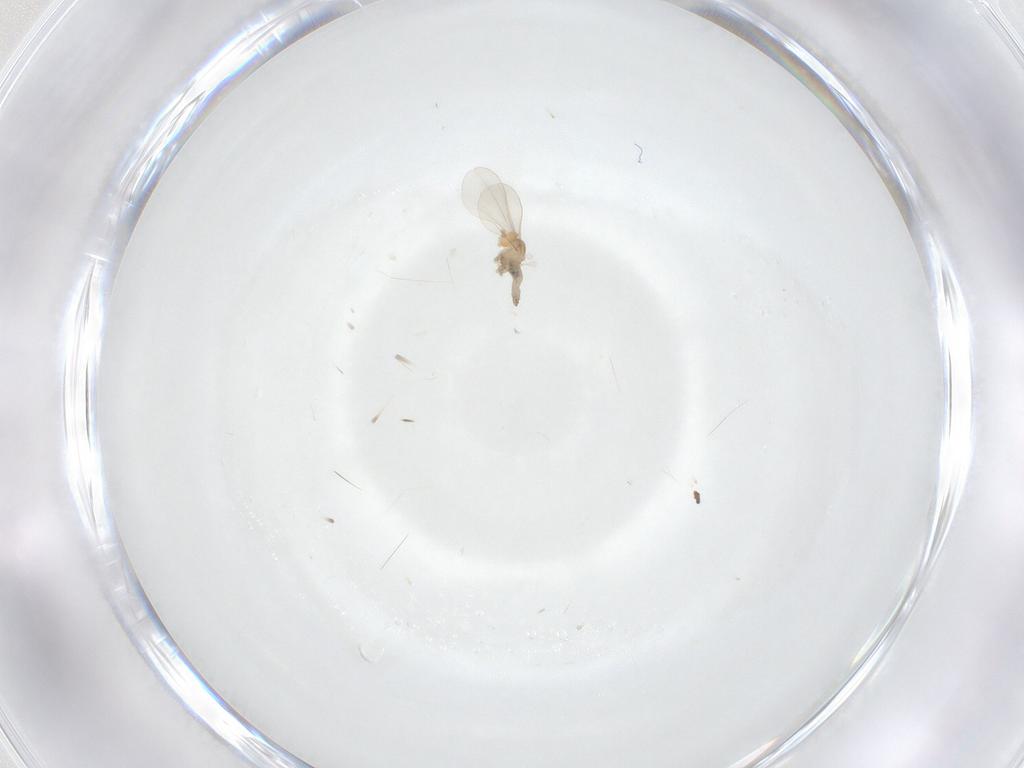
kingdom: Animalia
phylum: Arthropoda
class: Insecta
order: Diptera
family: Cecidomyiidae
